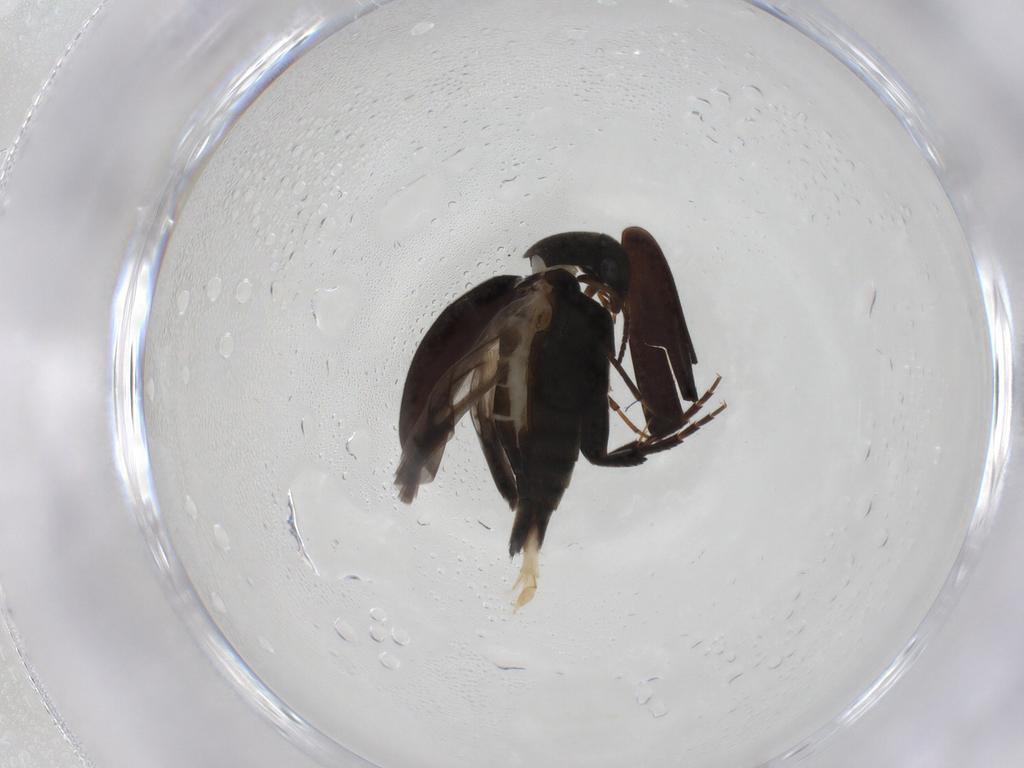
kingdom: Animalia
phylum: Arthropoda
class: Insecta
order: Coleoptera
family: Mordellidae
